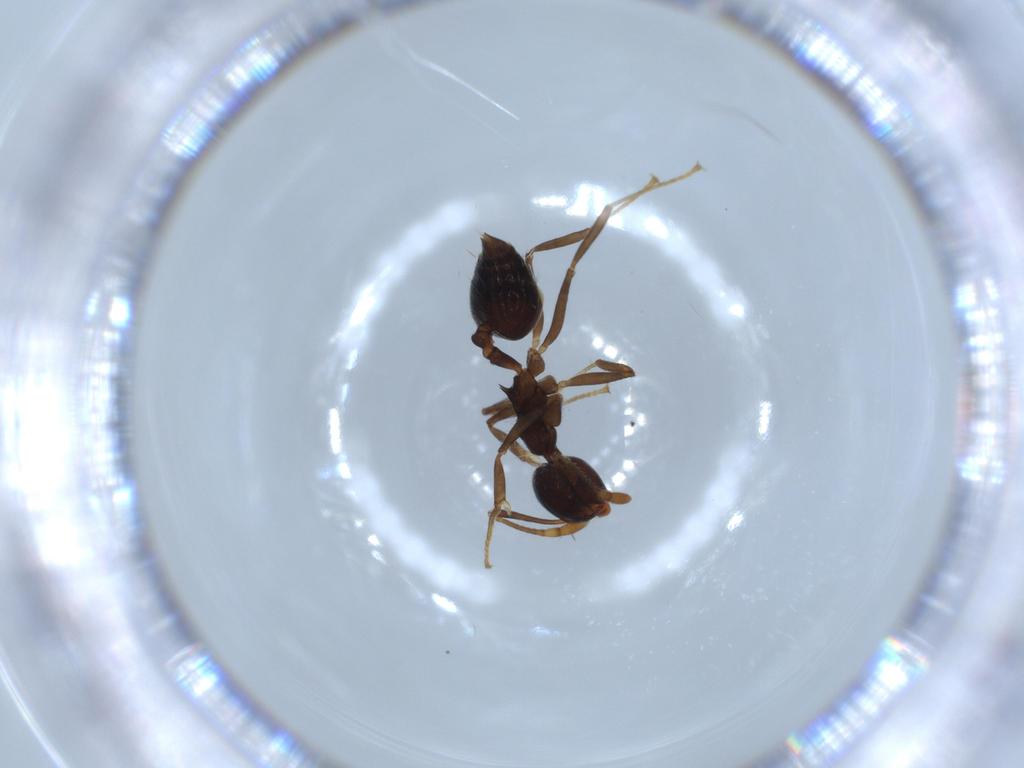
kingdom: Animalia
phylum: Arthropoda
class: Insecta
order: Hymenoptera
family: Formicidae
